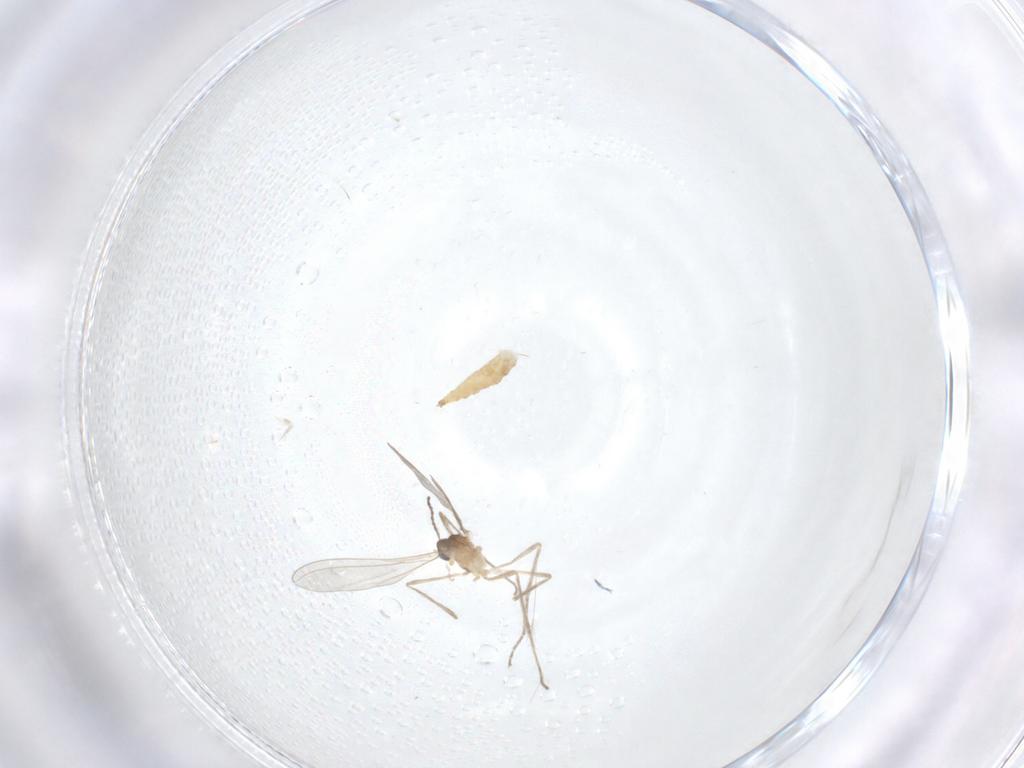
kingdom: Animalia
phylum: Arthropoda
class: Insecta
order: Diptera
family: Cecidomyiidae
